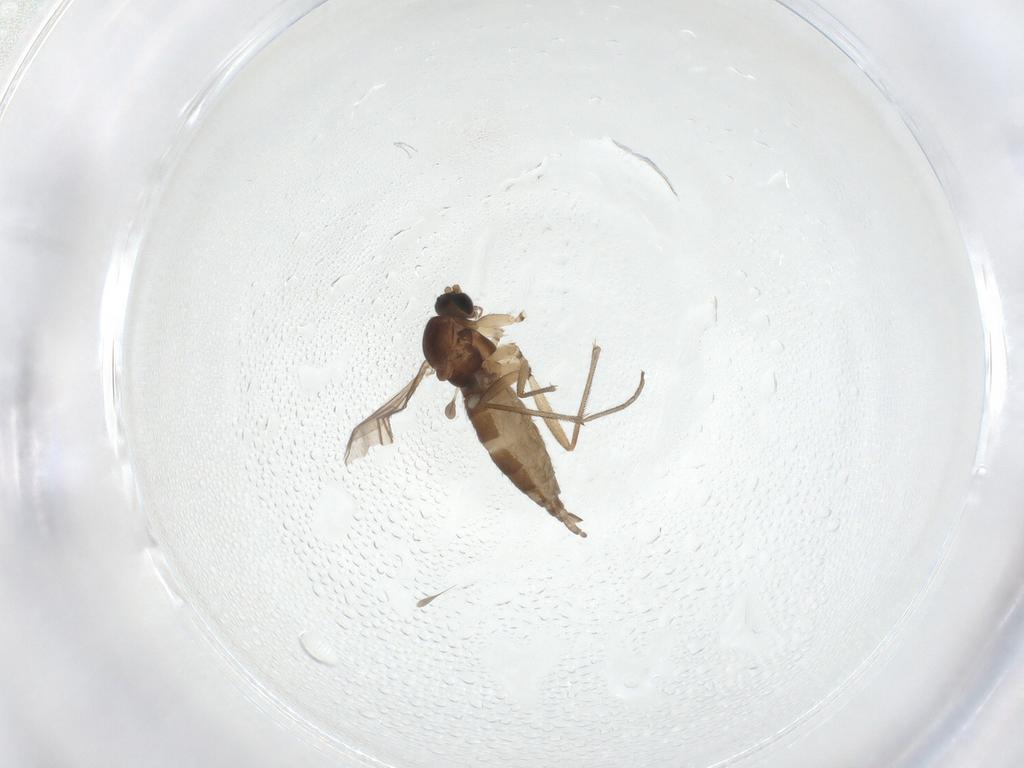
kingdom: Animalia
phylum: Arthropoda
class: Insecta
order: Diptera
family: Sciaridae
